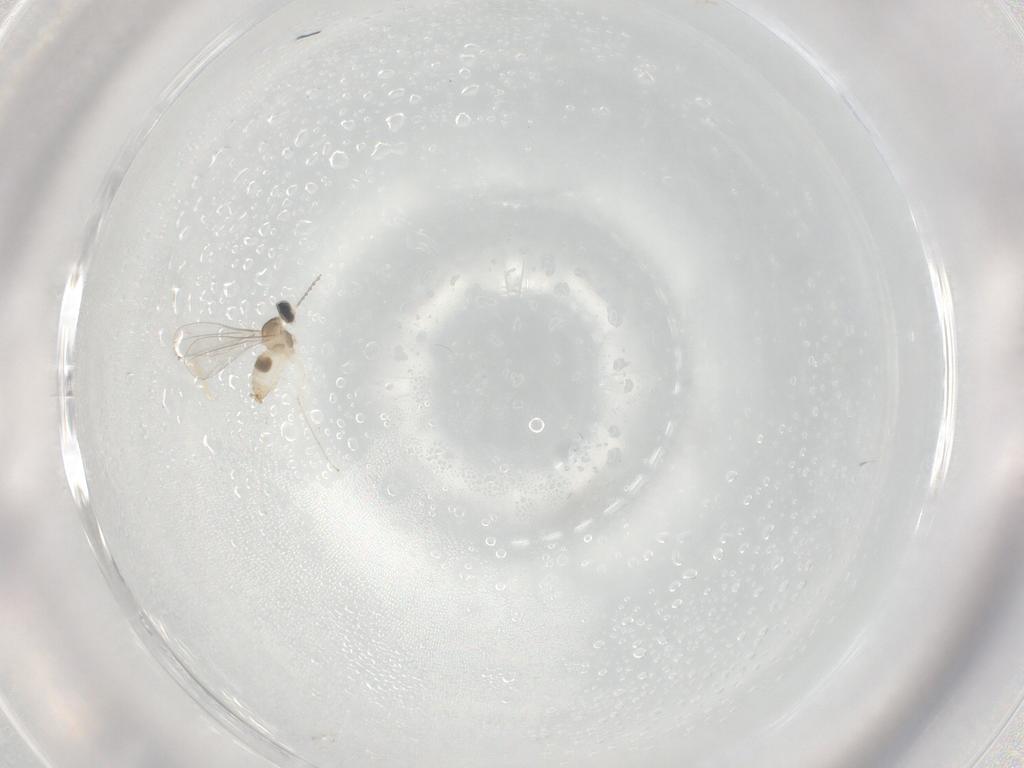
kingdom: Animalia
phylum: Arthropoda
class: Insecta
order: Diptera
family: Cecidomyiidae
